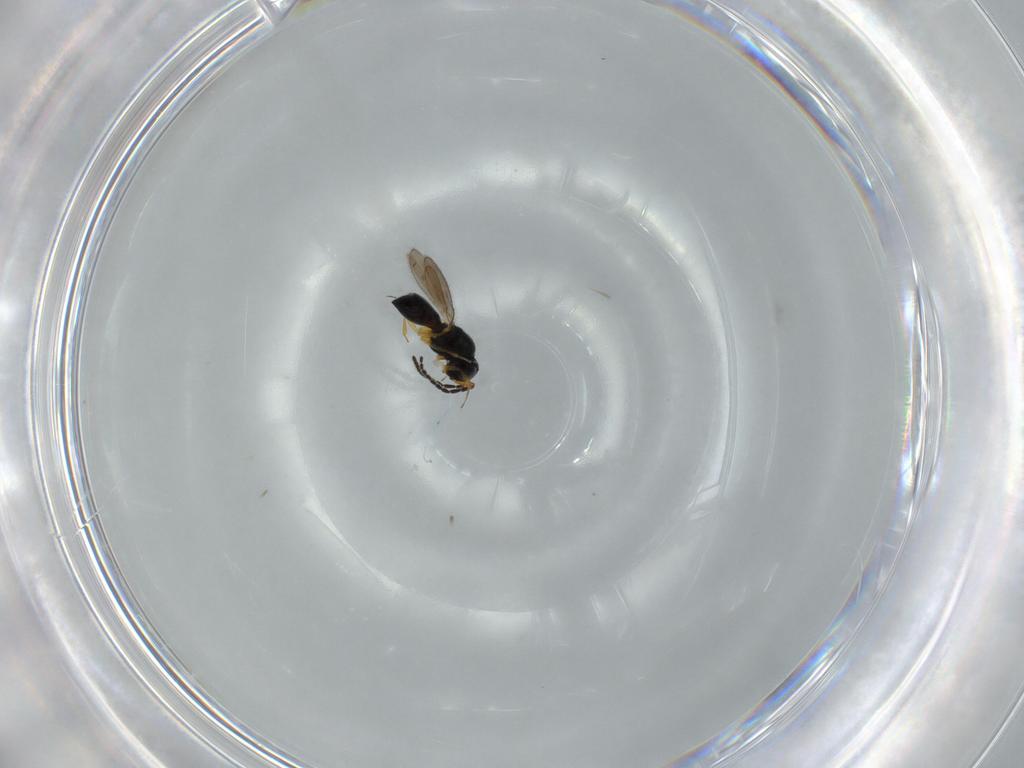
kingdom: Animalia
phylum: Arthropoda
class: Insecta
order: Hymenoptera
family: Scelionidae
